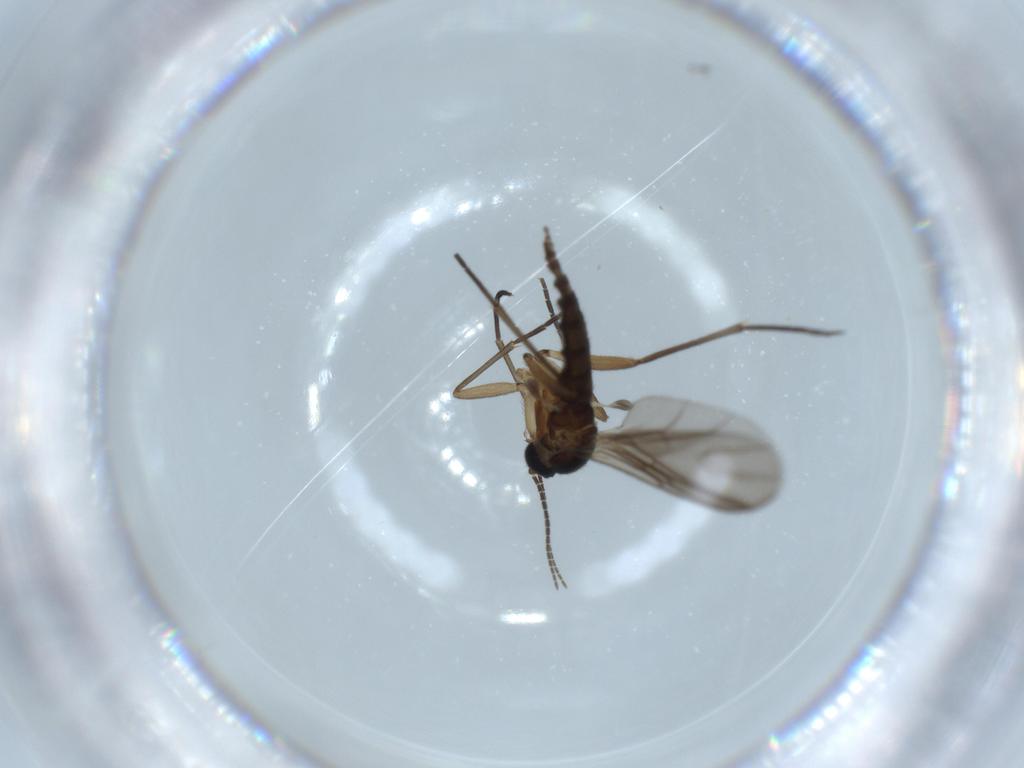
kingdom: Animalia
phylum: Arthropoda
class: Insecta
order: Diptera
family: Sciaridae
